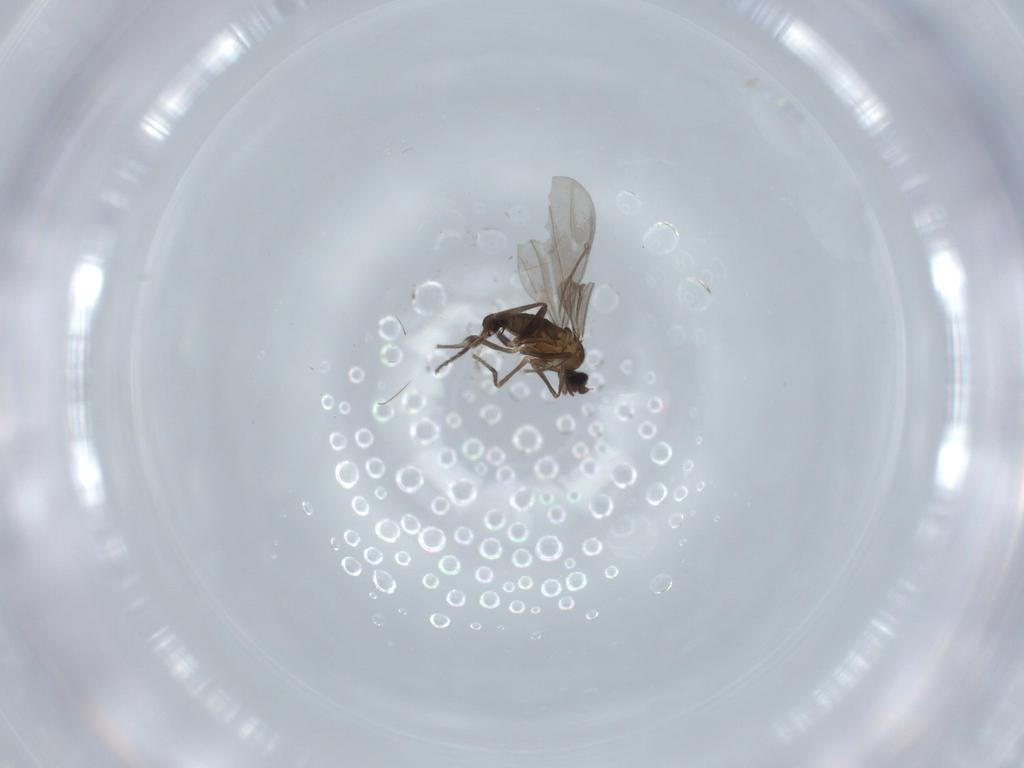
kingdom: Animalia
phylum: Arthropoda
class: Insecta
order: Diptera
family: Phoridae
